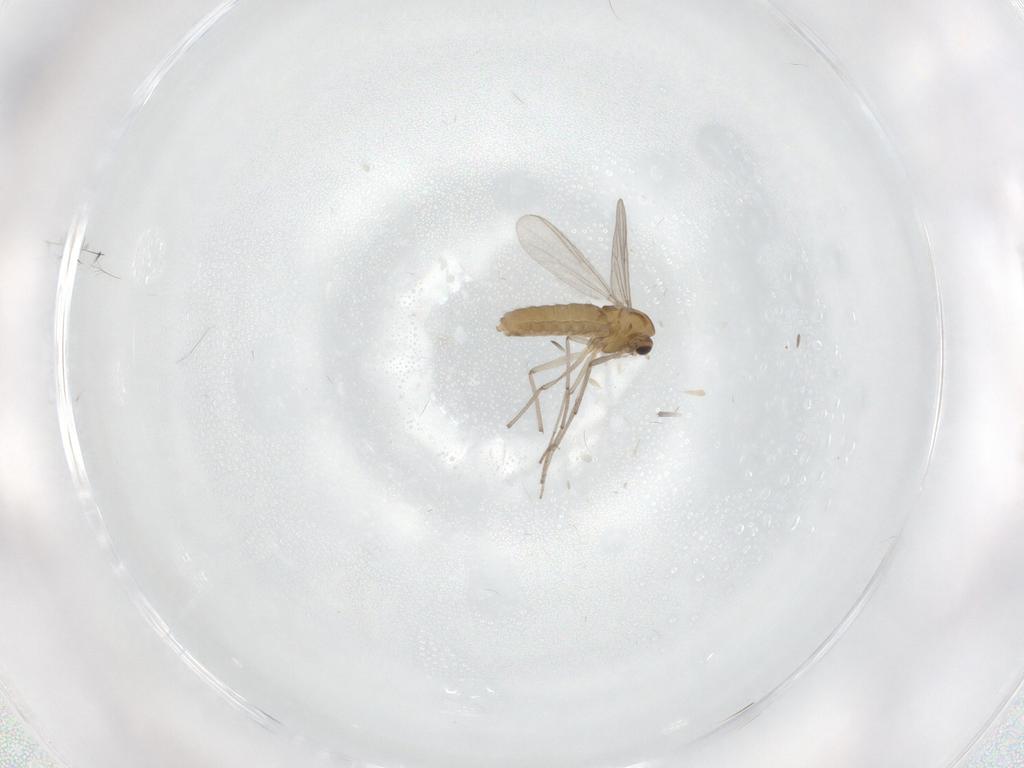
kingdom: Animalia
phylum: Arthropoda
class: Insecta
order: Diptera
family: Chironomidae
